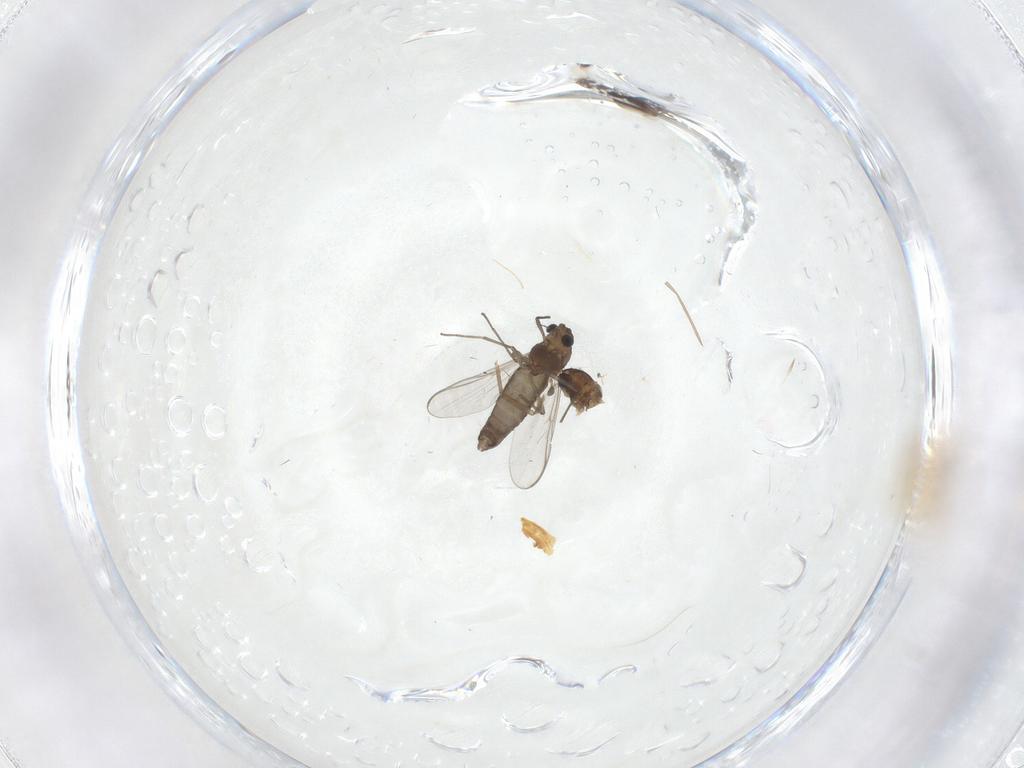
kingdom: Animalia
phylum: Arthropoda
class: Insecta
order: Diptera
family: Chironomidae
